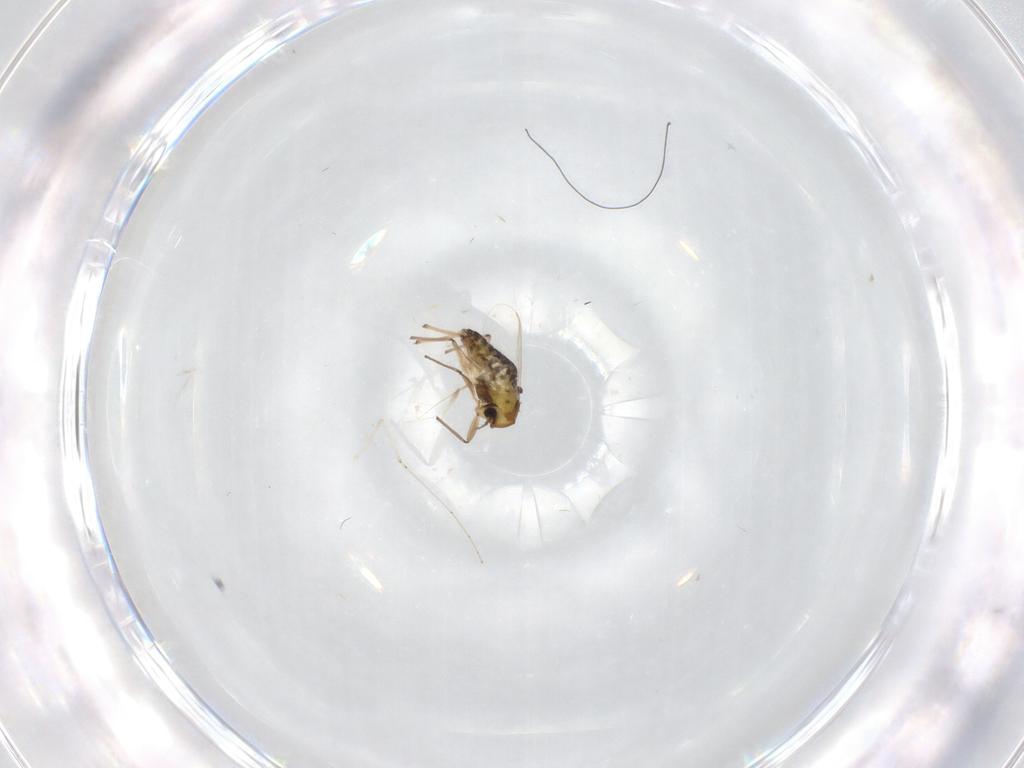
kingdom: Animalia
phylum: Arthropoda
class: Insecta
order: Diptera
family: Chironomidae
